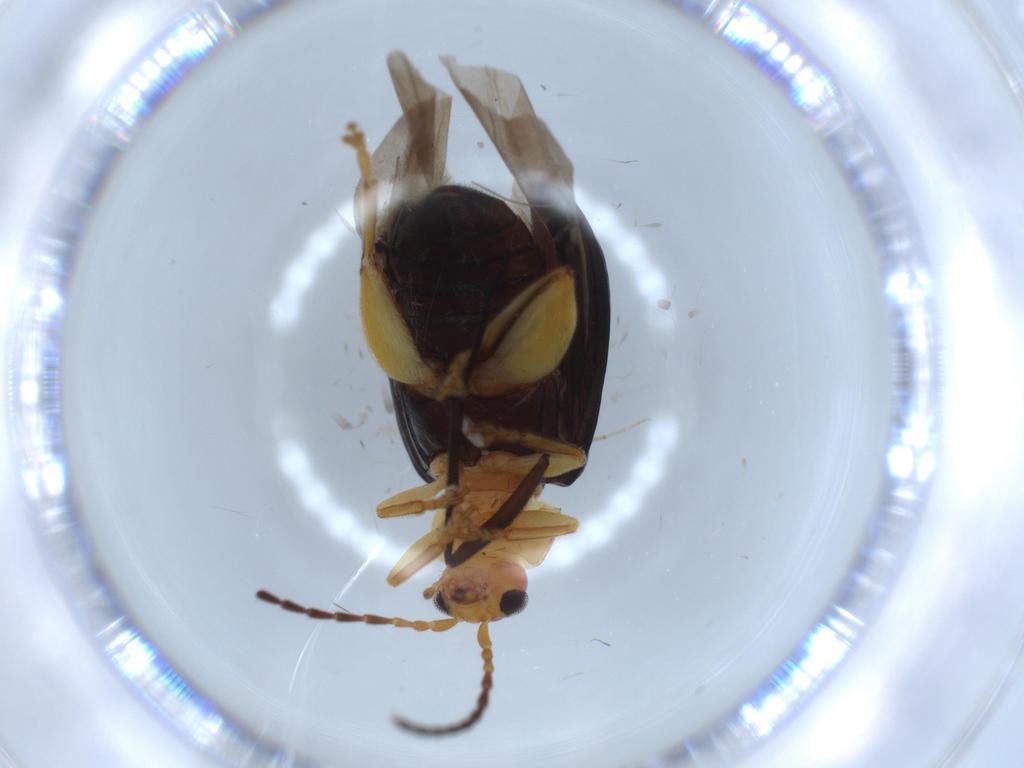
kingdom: Animalia
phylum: Arthropoda
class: Insecta
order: Coleoptera
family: Chrysomelidae
